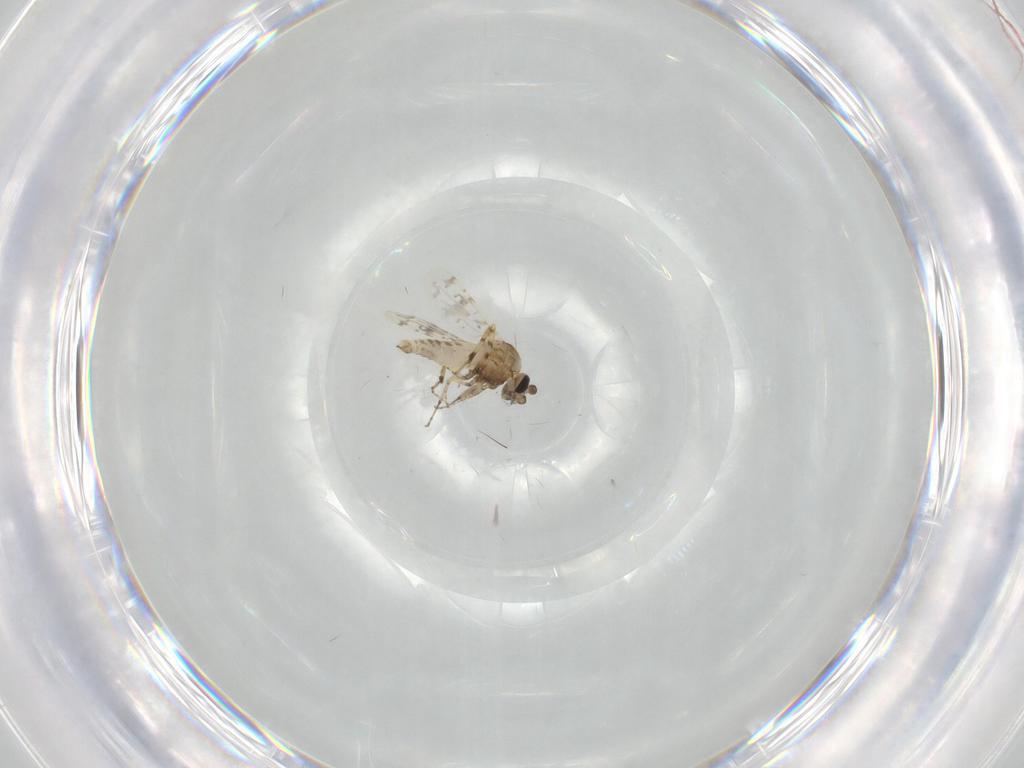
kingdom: Animalia
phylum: Arthropoda
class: Insecta
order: Diptera
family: Ceratopogonidae
